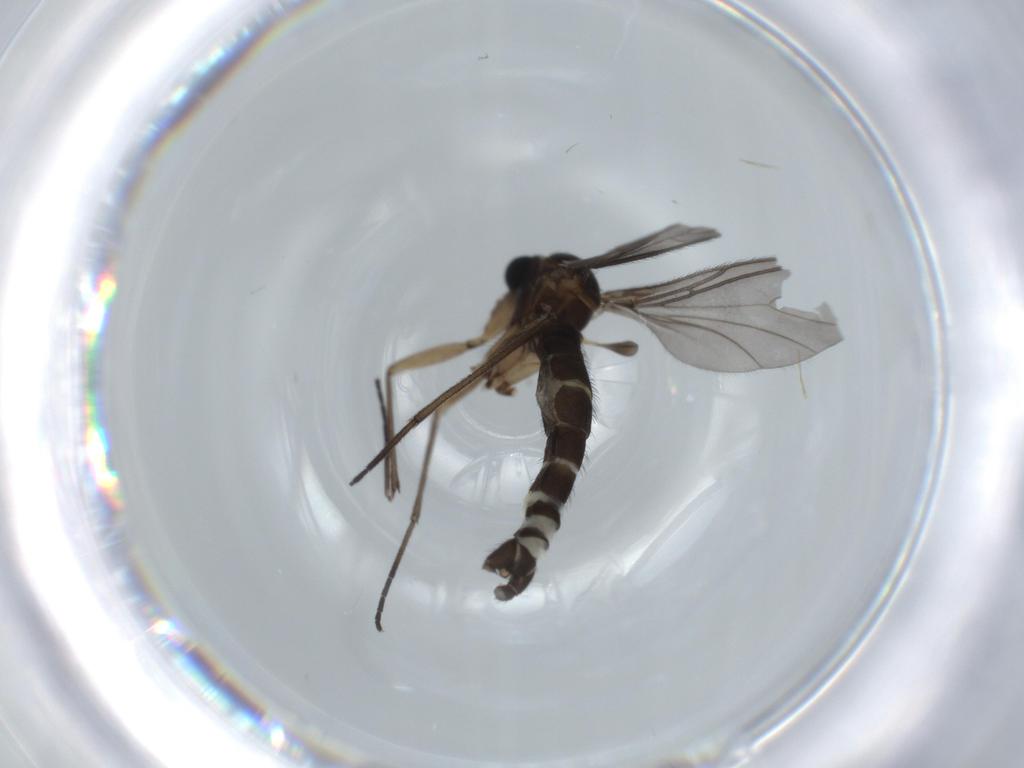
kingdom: Animalia
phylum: Arthropoda
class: Insecta
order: Diptera
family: Sciaridae
